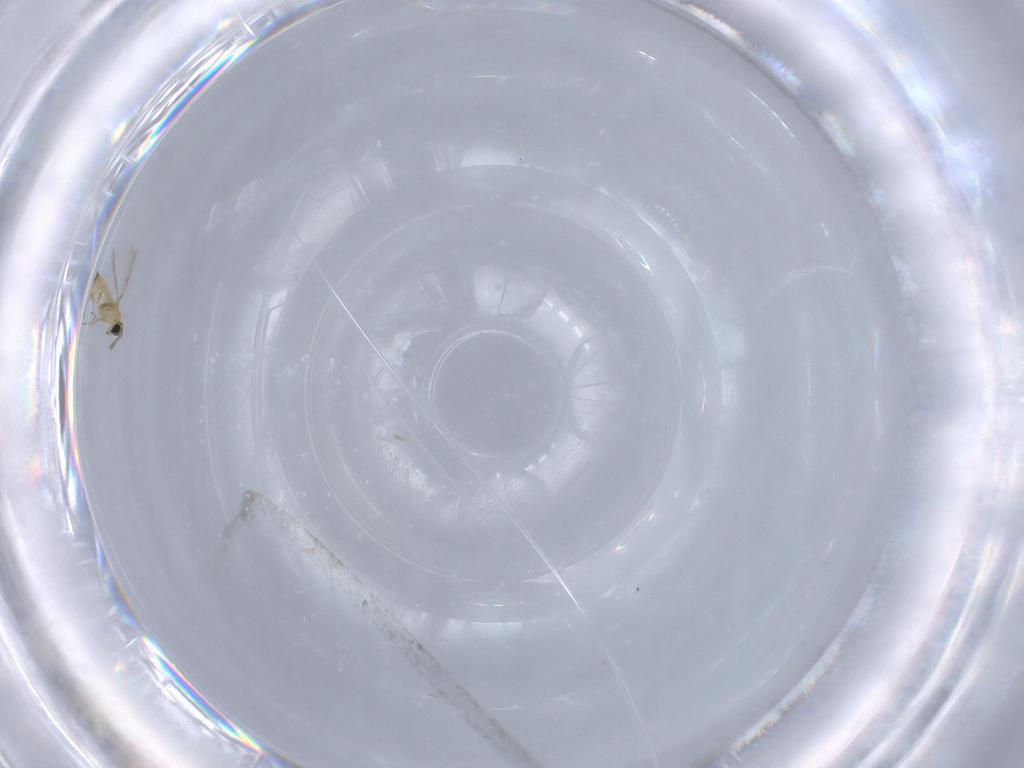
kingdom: Animalia
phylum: Arthropoda
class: Insecta
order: Hymenoptera
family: Trichogrammatidae
